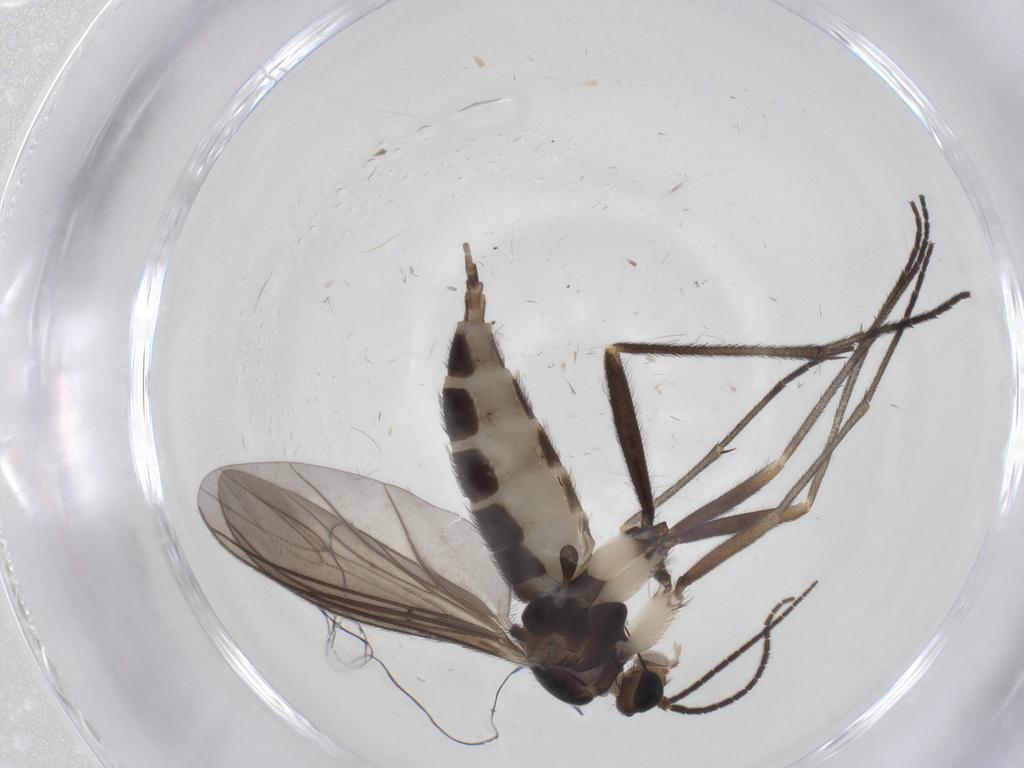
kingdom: Animalia
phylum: Arthropoda
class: Insecta
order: Diptera
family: Sciaridae
